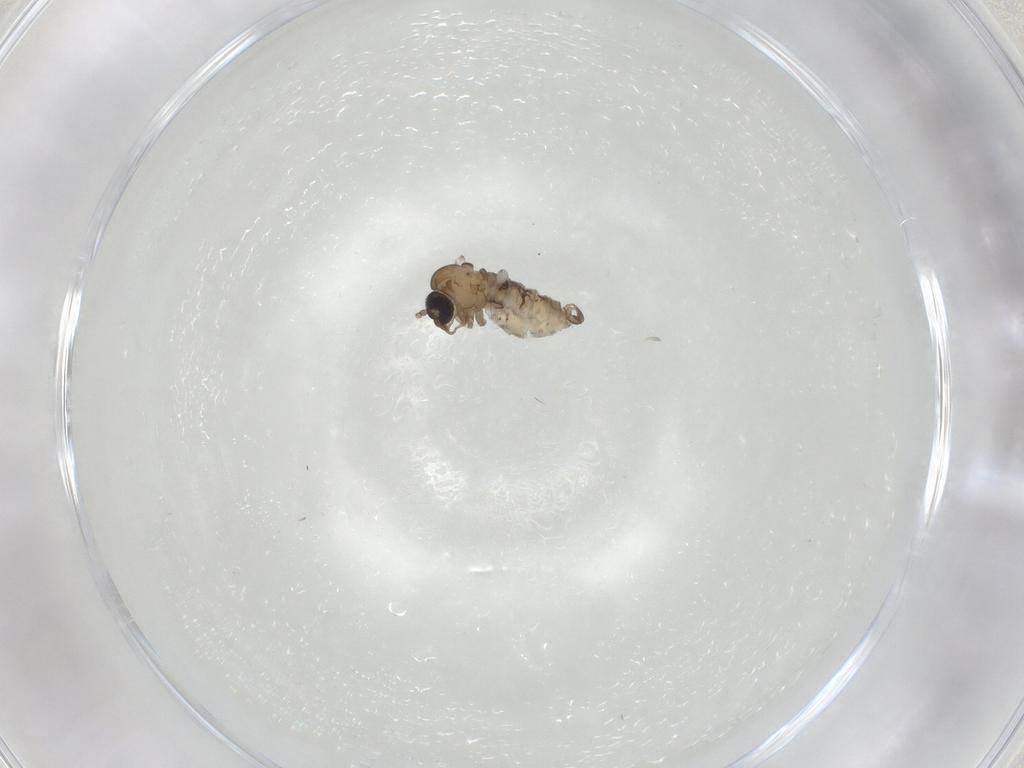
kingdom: Animalia
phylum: Arthropoda
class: Insecta
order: Diptera
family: Psychodidae
